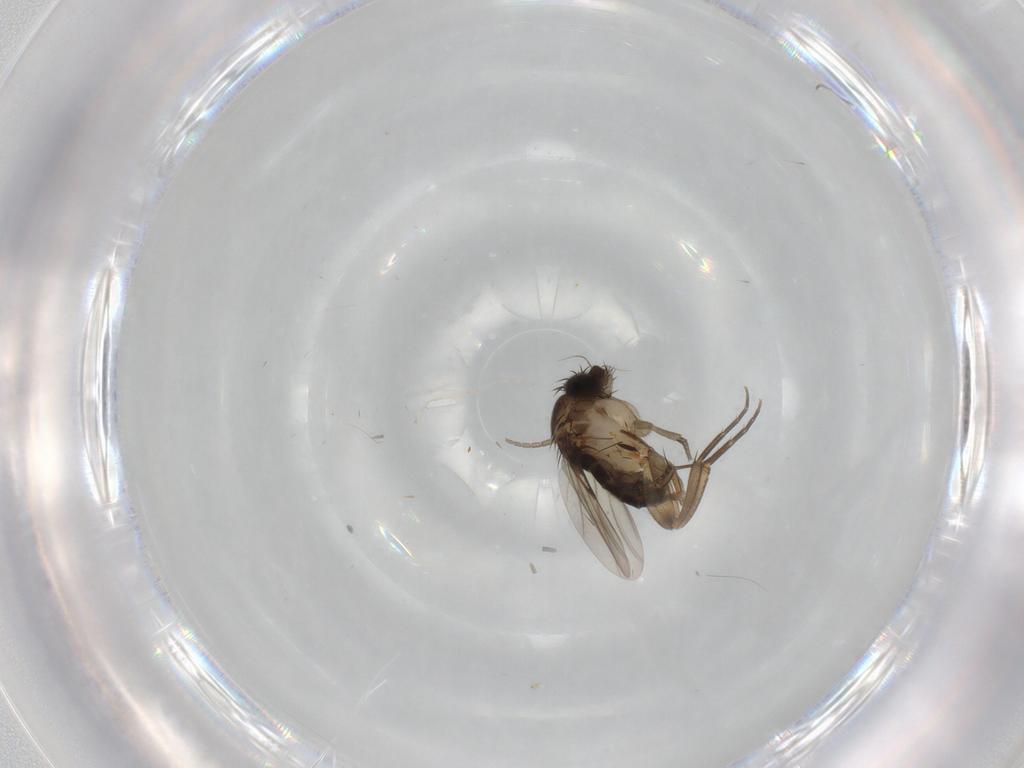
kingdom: Animalia
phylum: Arthropoda
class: Insecta
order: Diptera
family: Phoridae
